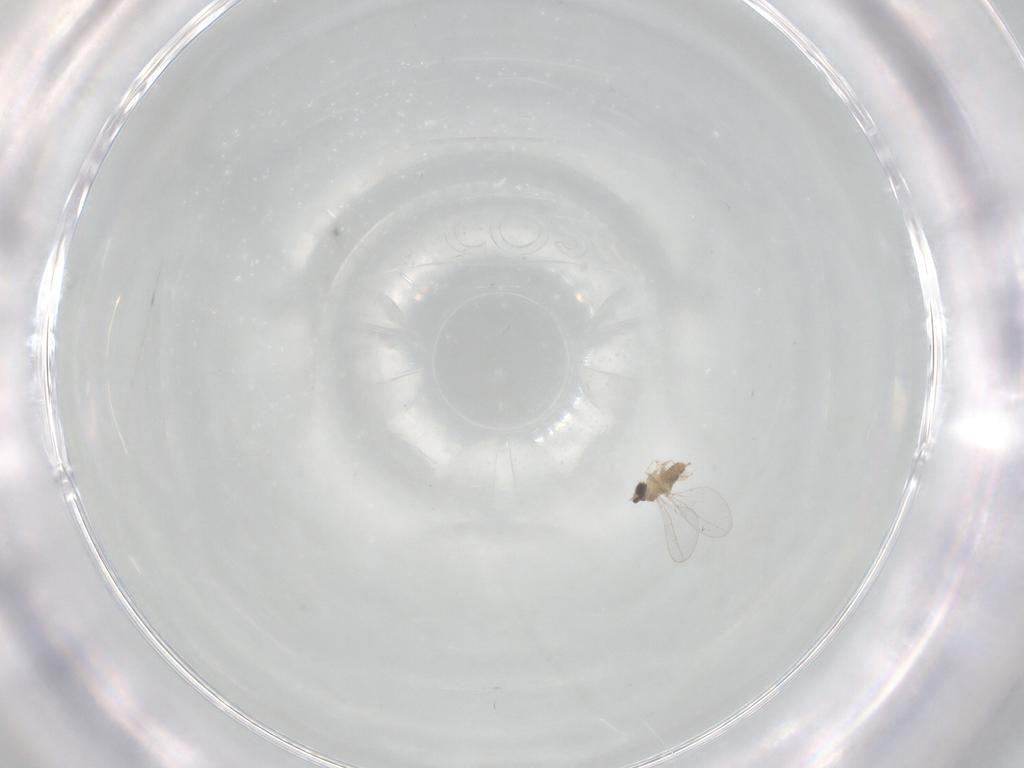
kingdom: Animalia
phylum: Arthropoda
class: Insecta
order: Diptera
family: Cecidomyiidae
